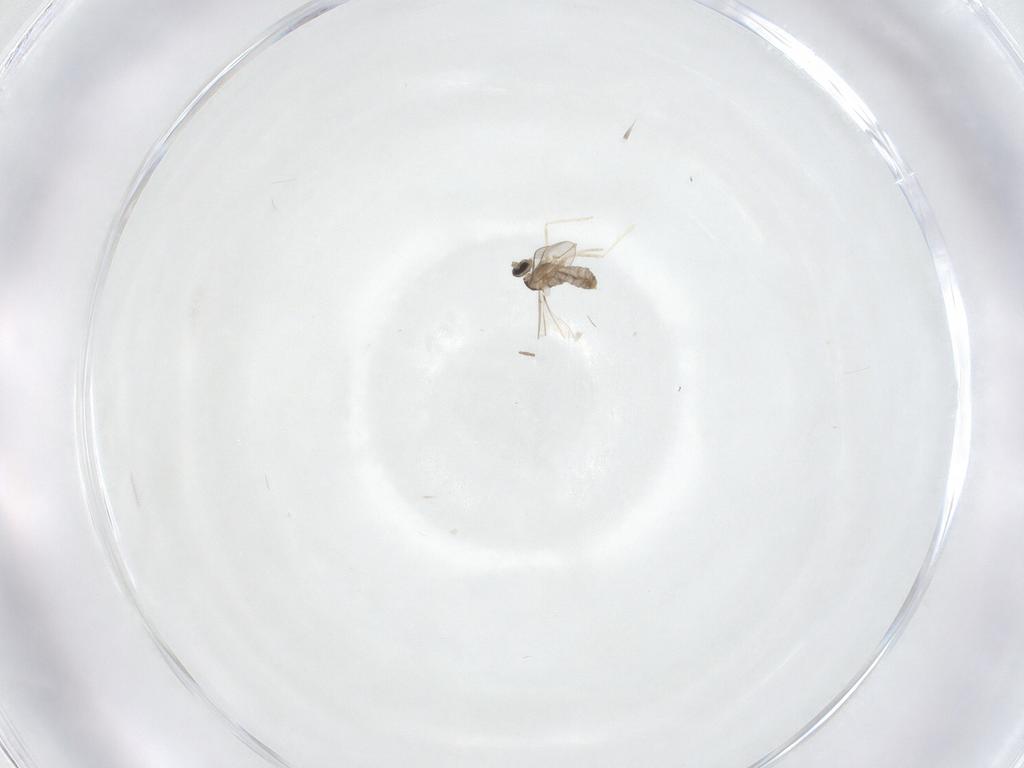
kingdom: Animalia
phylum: Arthropoda
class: Insecta
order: Diptera
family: Cecidomyiidae
